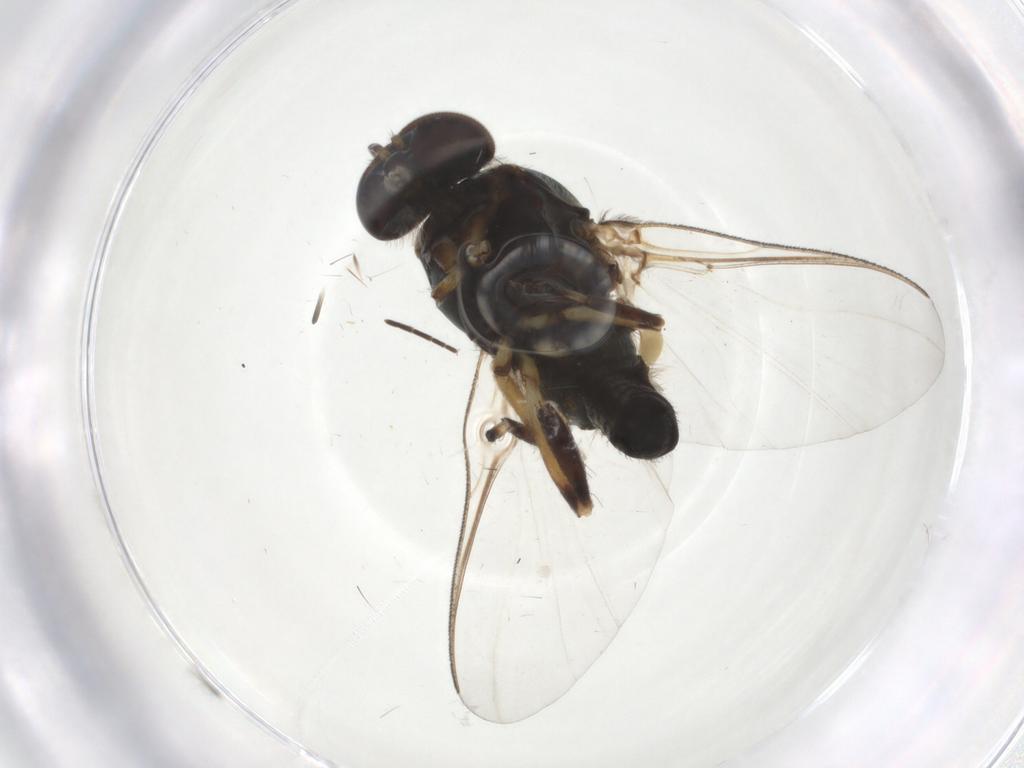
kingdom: Animalia
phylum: Arthropoda
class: Insecta
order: Diptera
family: Simuliidae
